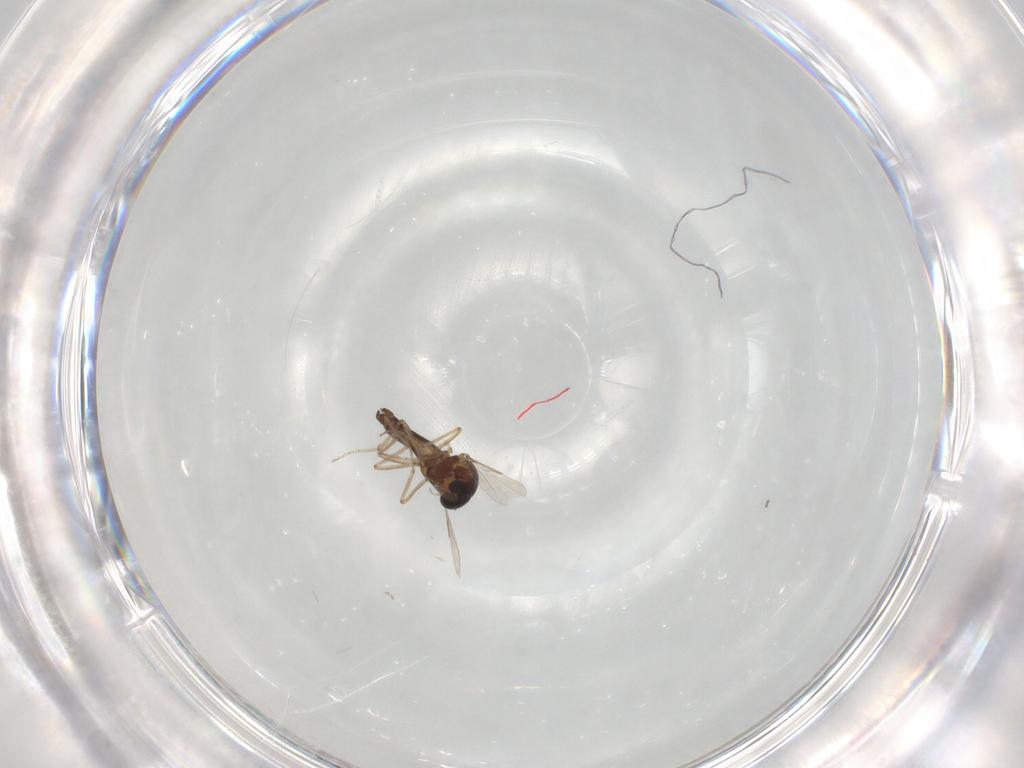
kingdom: Animalia
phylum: Arthropoda
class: Insecta
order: Diptera
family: Ceratopogonidae
